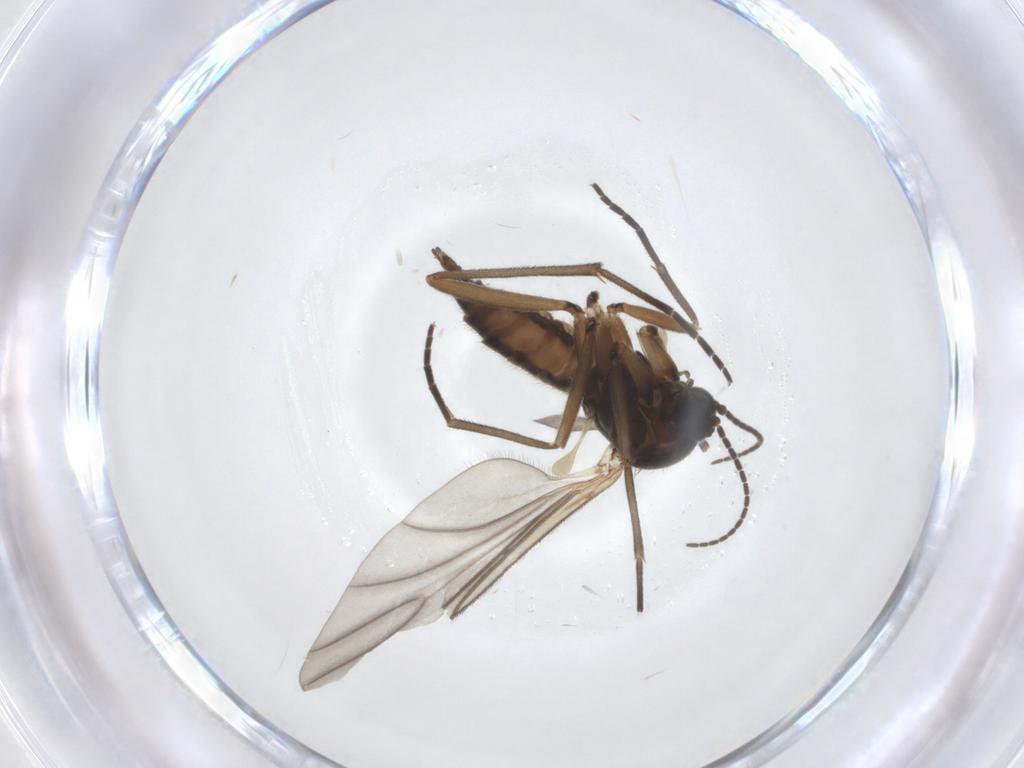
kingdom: Animalia
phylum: Arthropoda
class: Insecta
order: Diptera
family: Sciaridae
